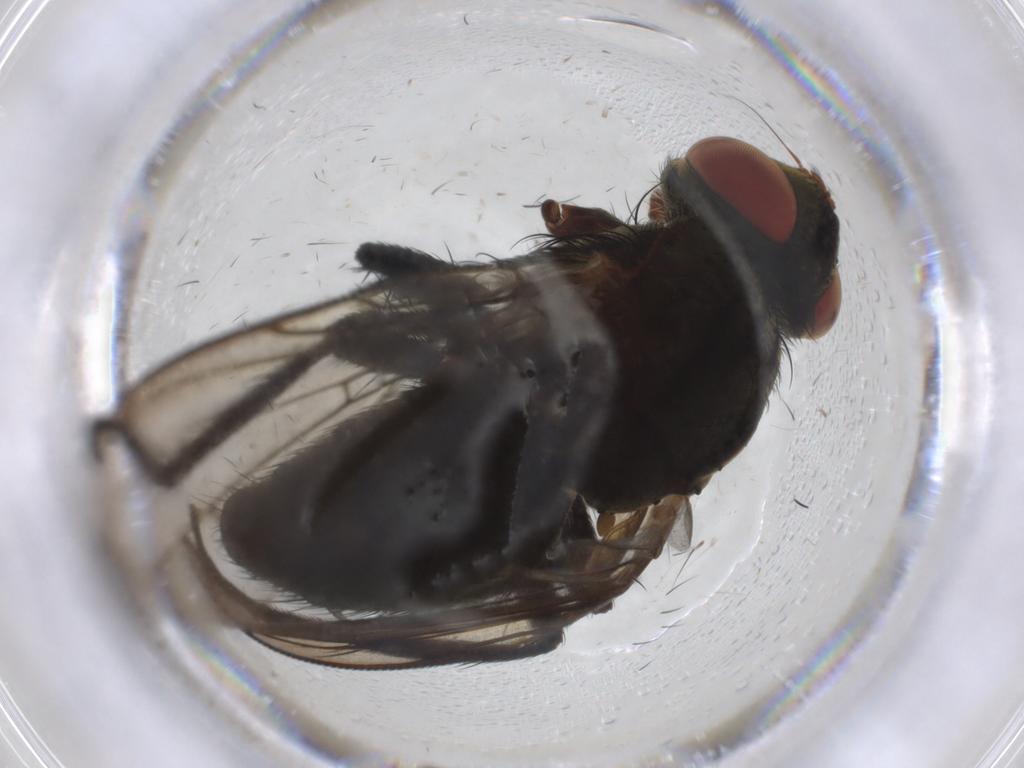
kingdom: Animalia
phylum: Arthropoda
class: Insecta
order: Diptera
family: Tachinidae
